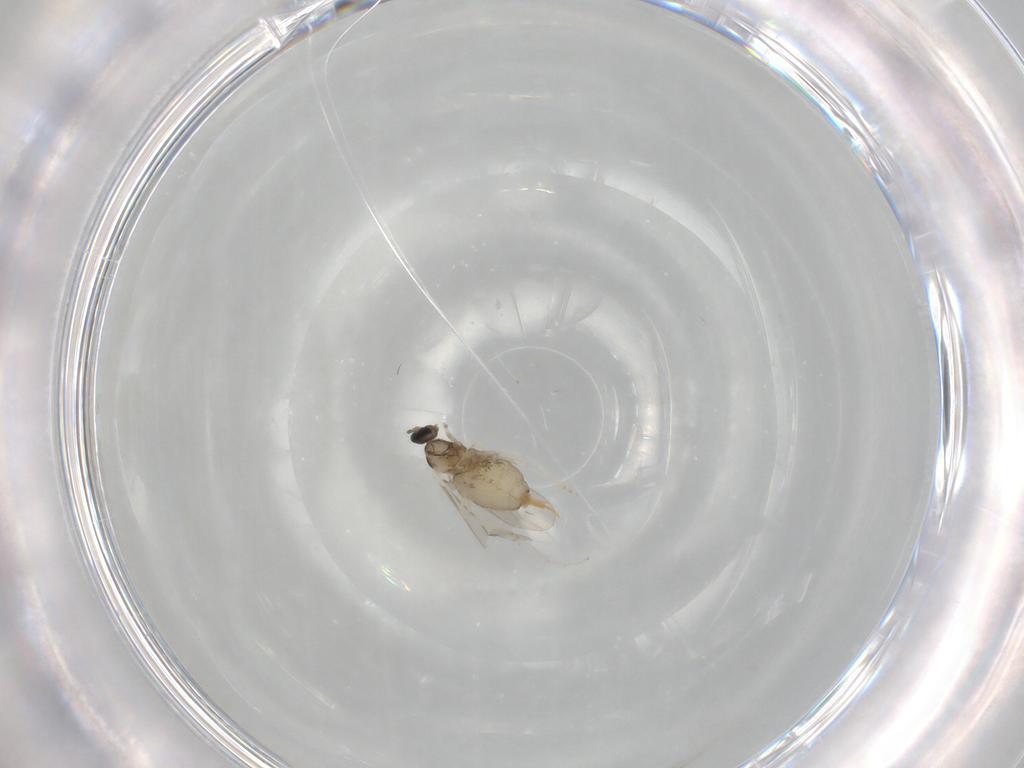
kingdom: Animalia
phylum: Arthropoda
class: Insecta
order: Diptera
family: Cecidomyiidae
